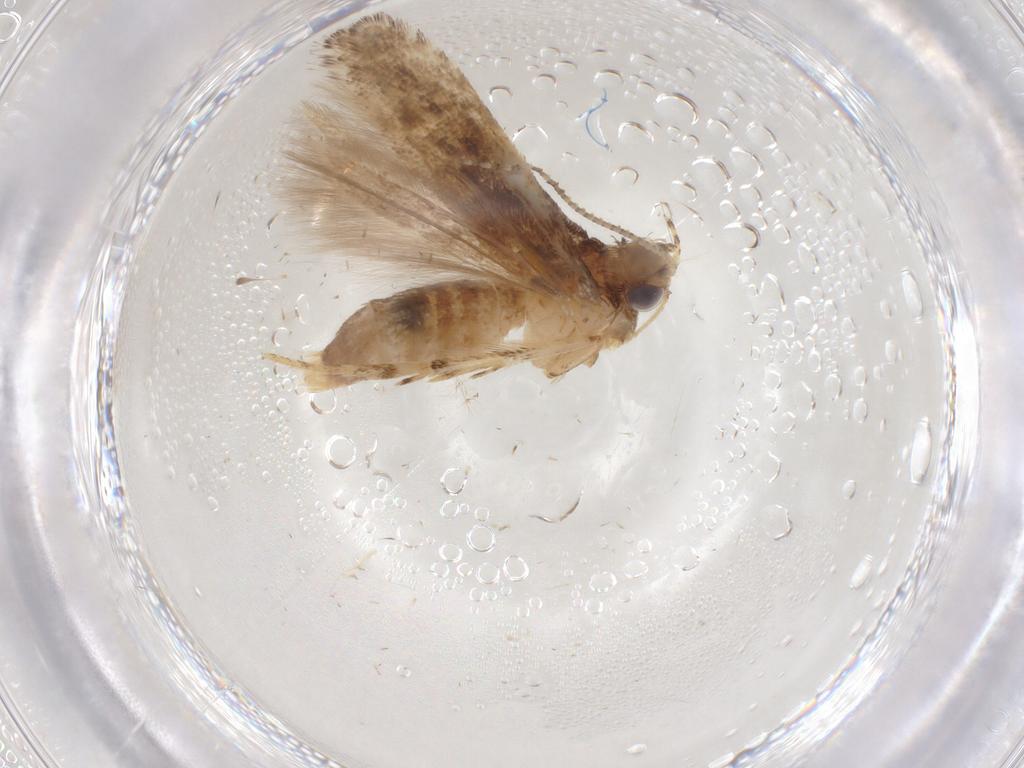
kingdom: Animalia
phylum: Arthropoda
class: Insecta
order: Lepidoptera
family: Gelechiidae
